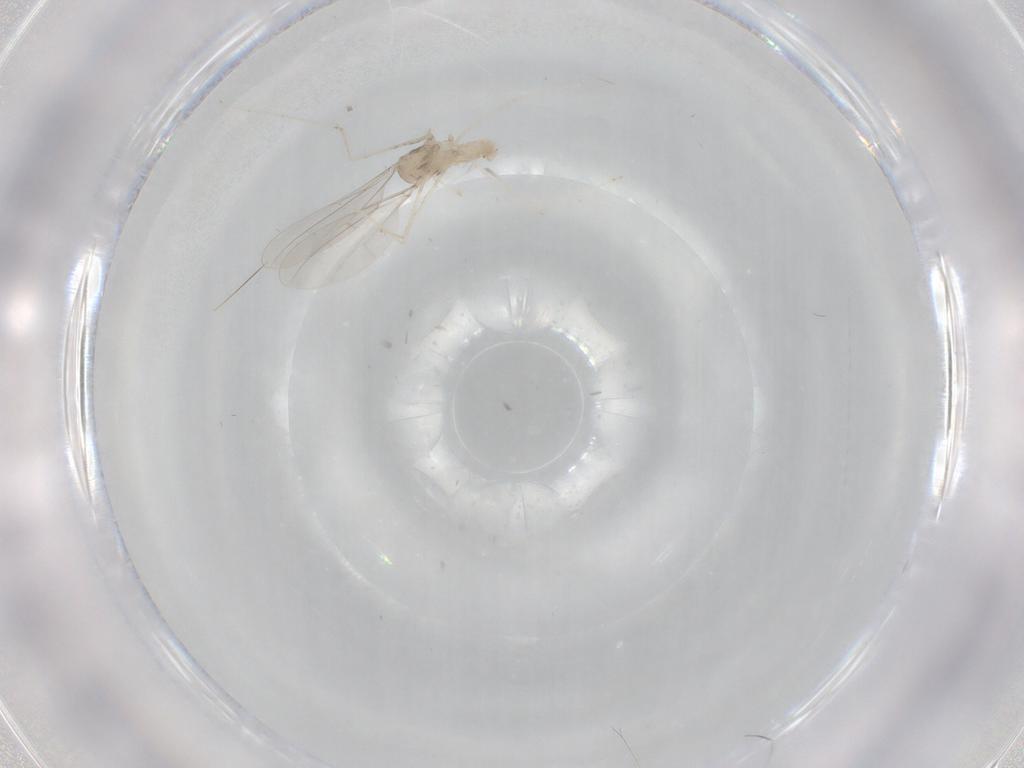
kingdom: Animalia
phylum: Arthropoda
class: Insecta
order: Diptera
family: Cecidomyiidae
